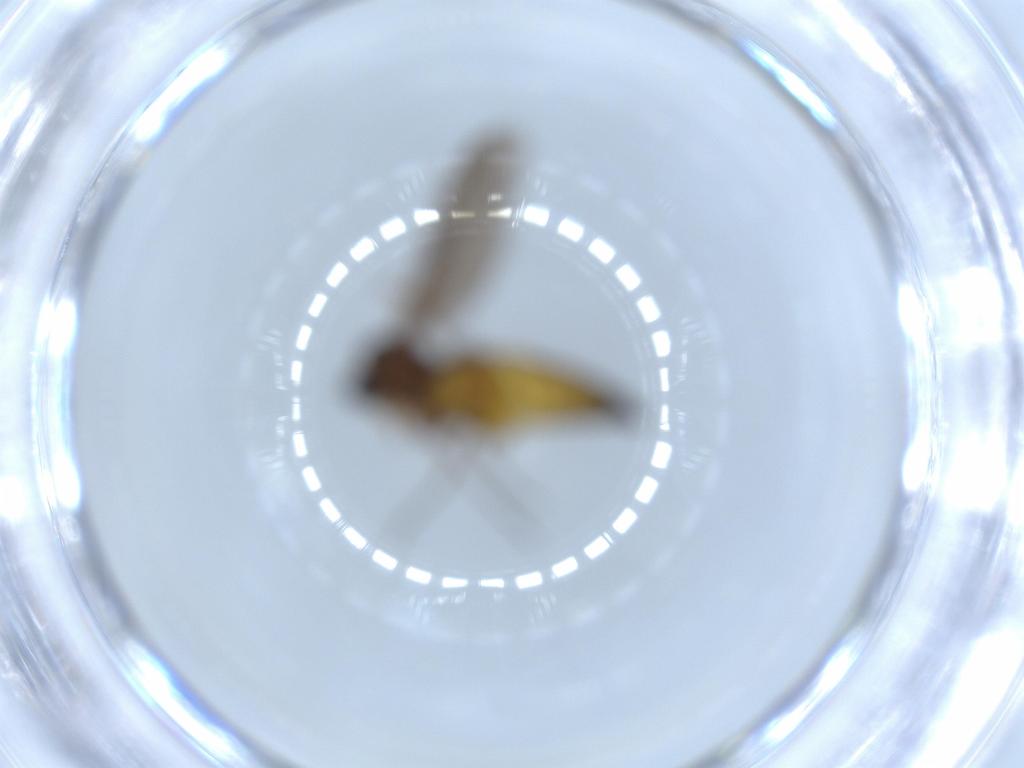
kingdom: Animalia
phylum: Arthropoda
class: Insecta
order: Diptera
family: Sciaridae
